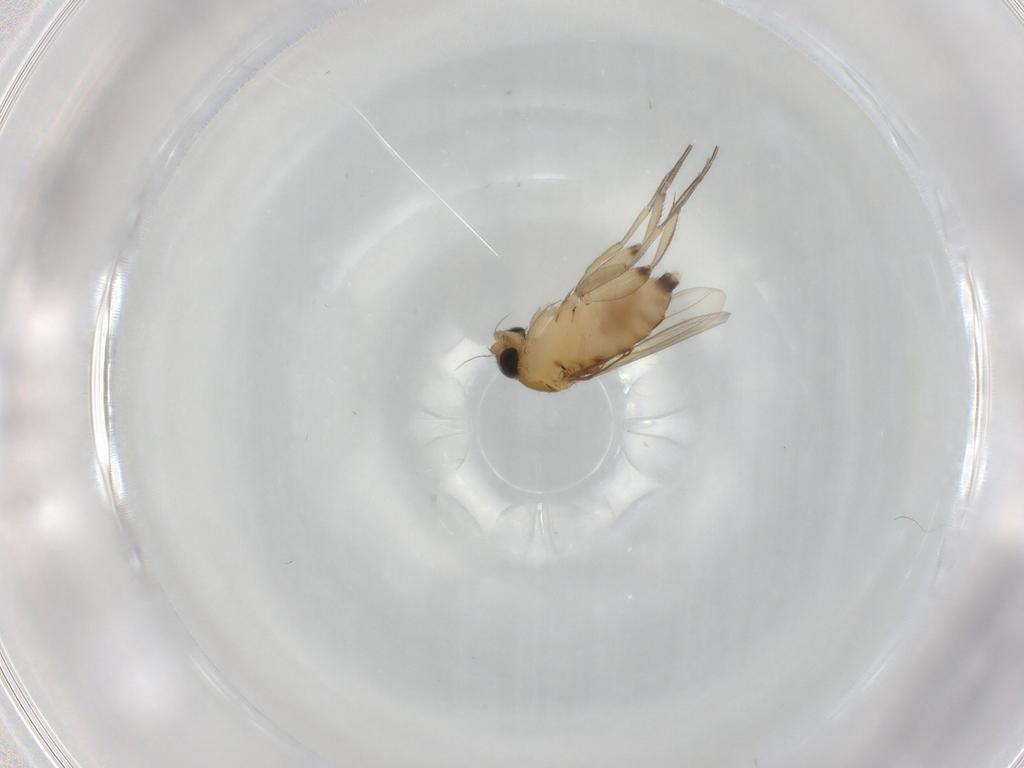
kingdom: Animalia
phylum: Arthropoda
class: Insecta
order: Diptera
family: Phoridae
